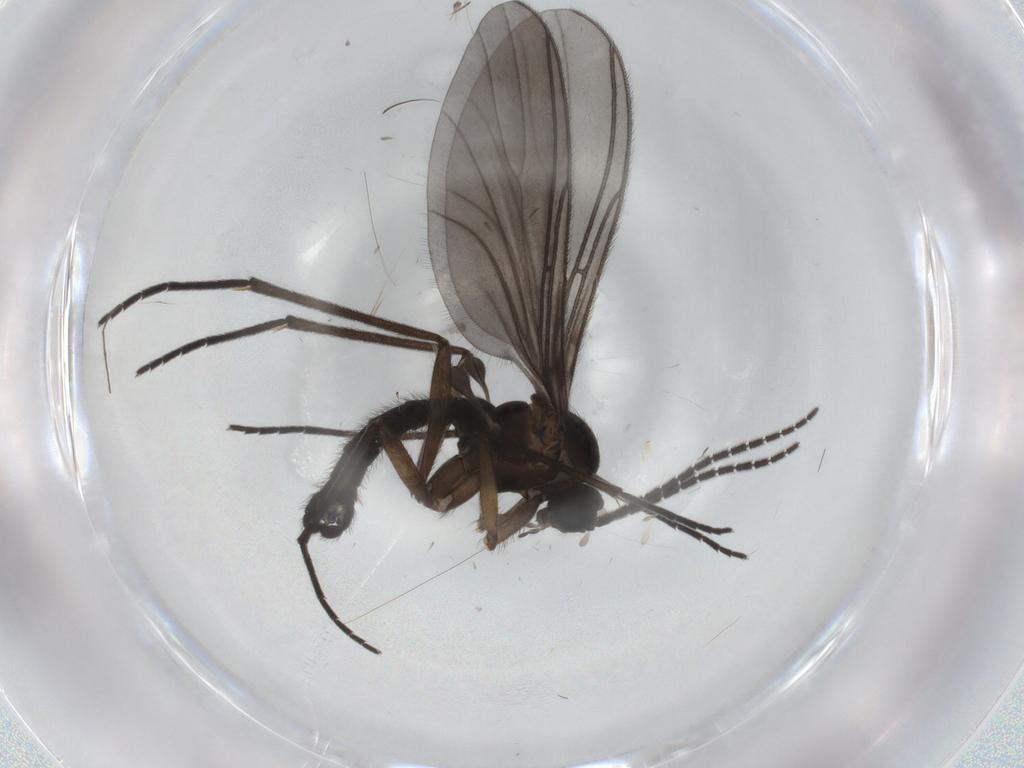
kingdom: Animalia
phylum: Arthropoda
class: Insecta
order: Diptera
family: Sciaridae
